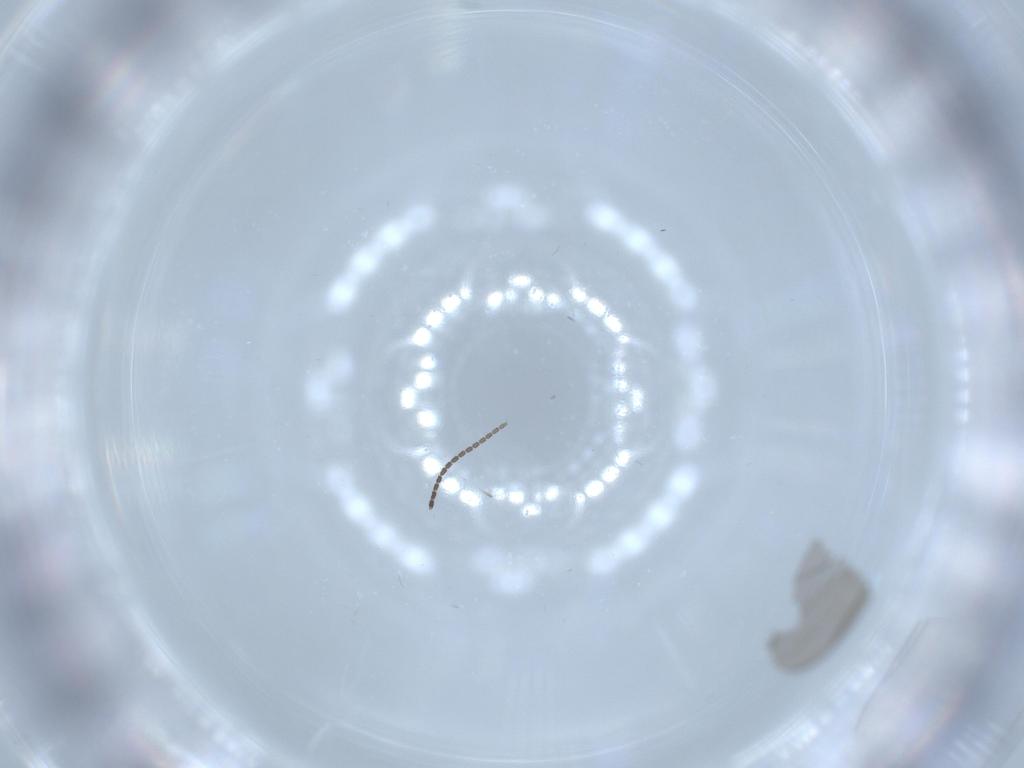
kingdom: Animalia
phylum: Arthropoda
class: Insecta
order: Diptera
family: Sciaridae
